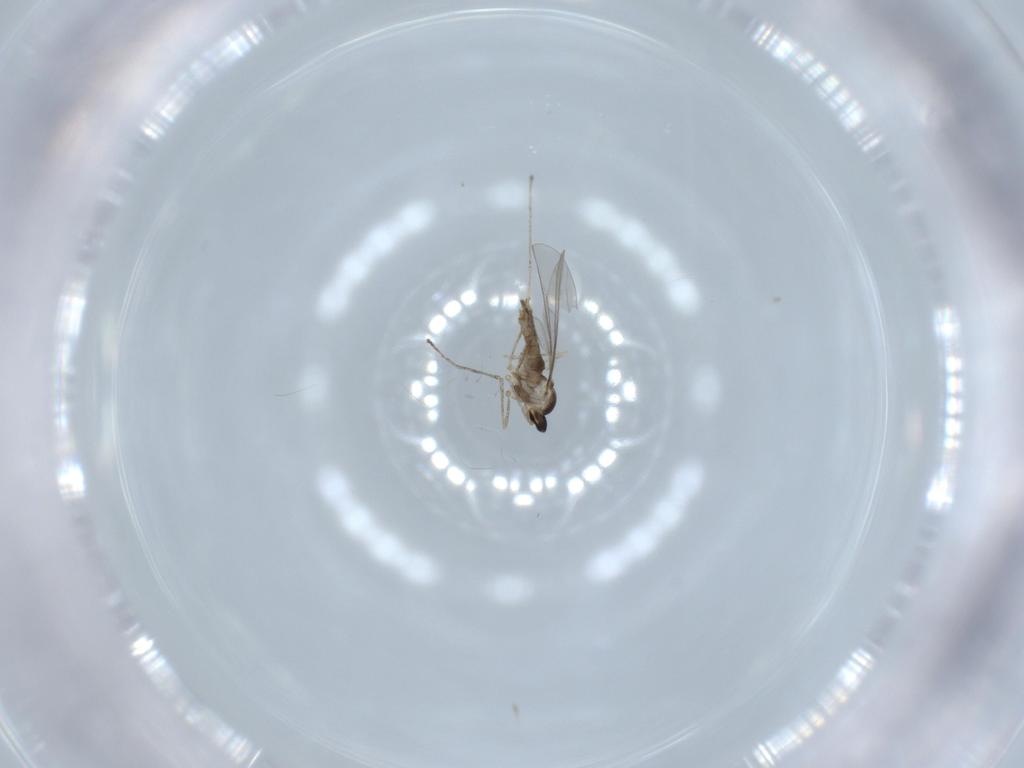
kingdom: Animalia
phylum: Arthropoda
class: Insecta
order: Diptera
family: Cecidomyiidae
